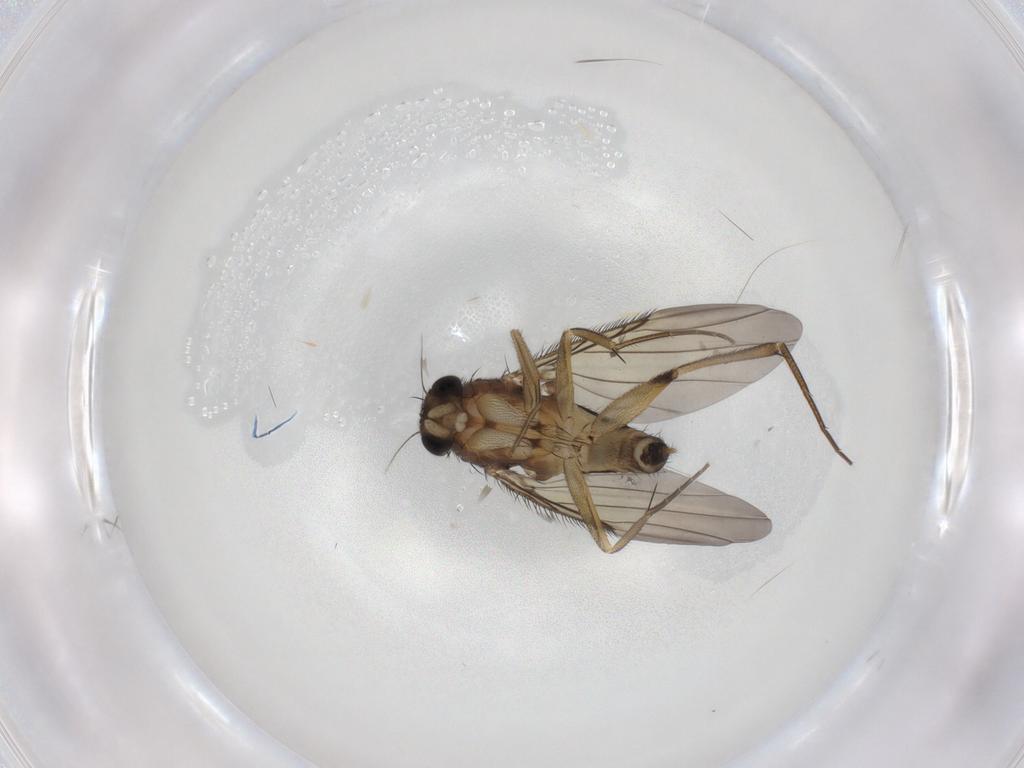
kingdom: Animalia
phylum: Arthropoda
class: Insecta
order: Diptera
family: Phoridae
